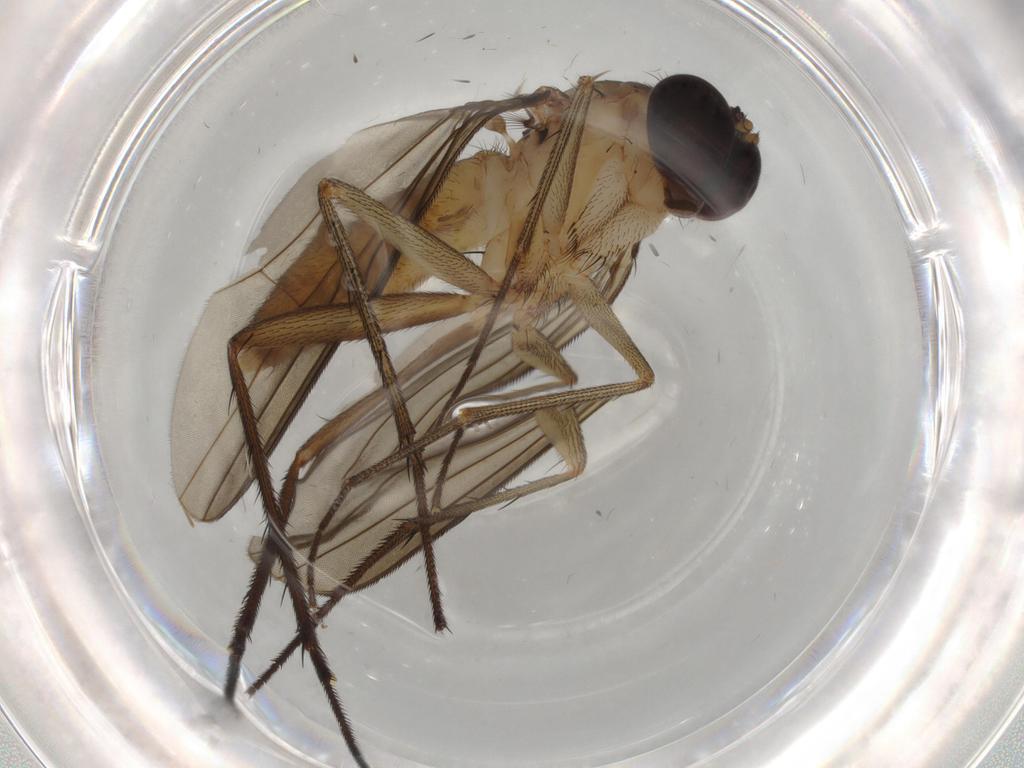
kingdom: Animalia
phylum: Arthropoda
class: Insecta
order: Diptera
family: Dolichopodidae
